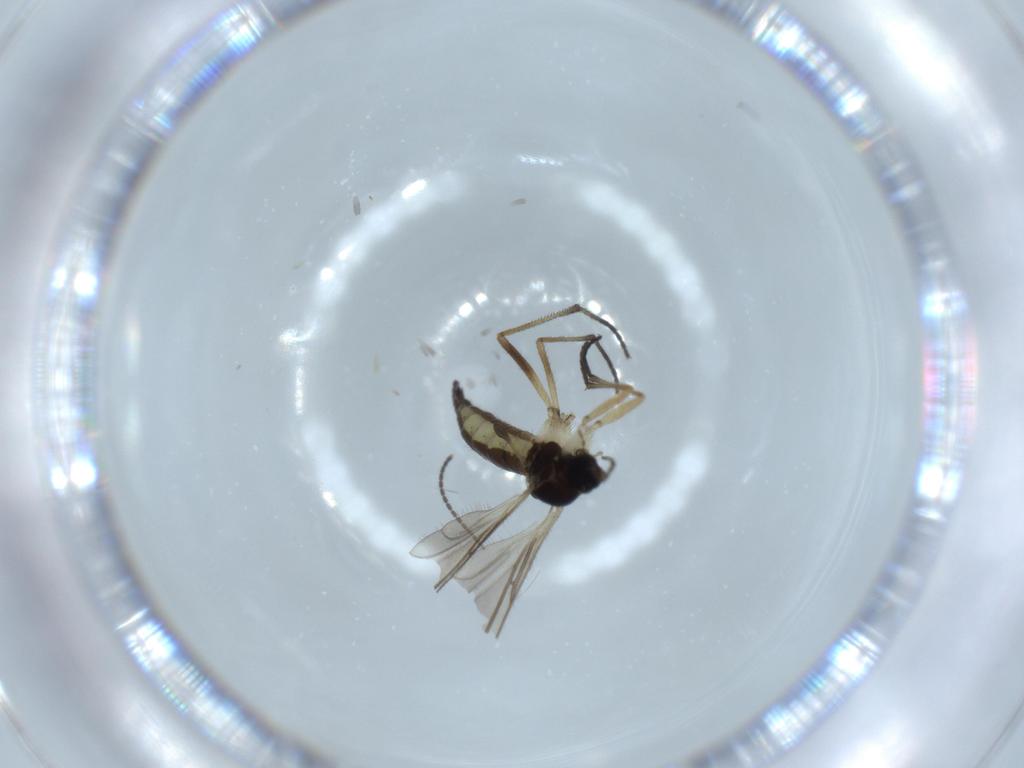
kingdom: Animalia
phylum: Arthropoda
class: Insecta
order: Diptera
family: Sciaridae
